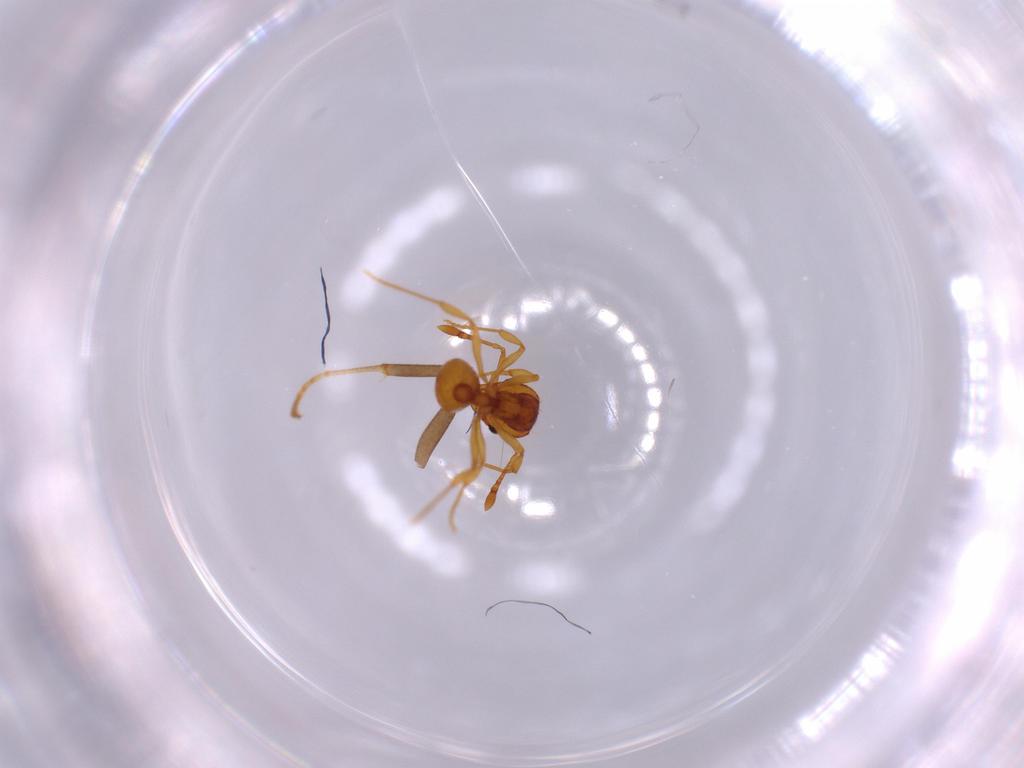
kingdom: Animalia
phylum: Arthropoda
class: Insecta
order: Hymenoptera
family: Formicidae
